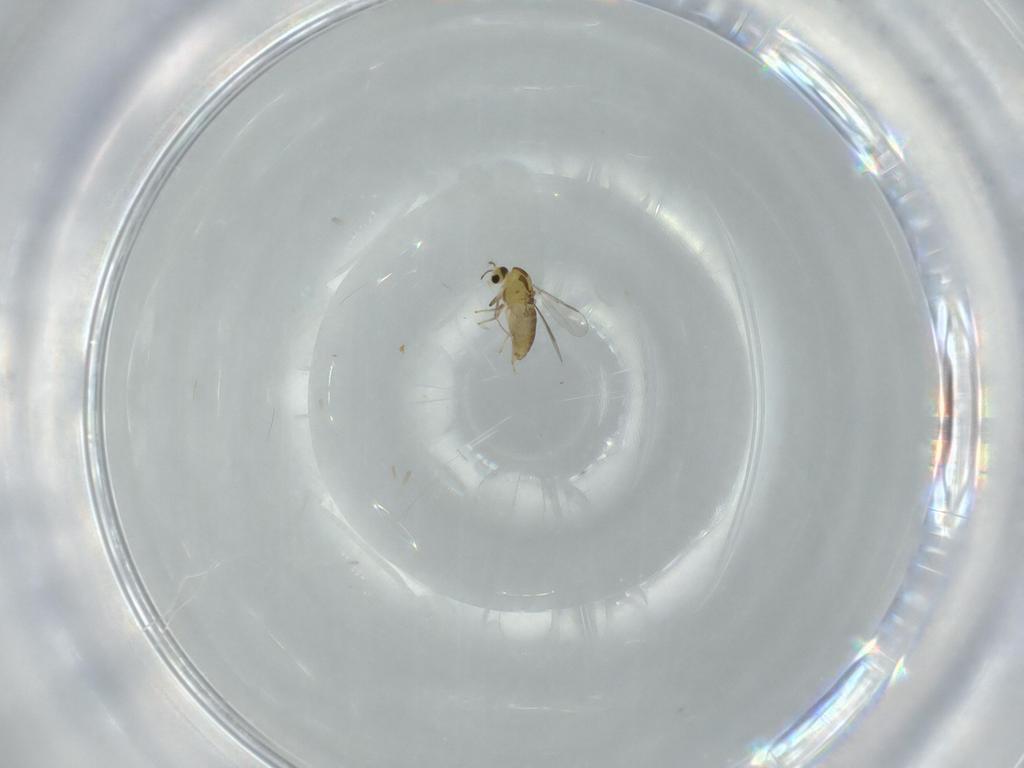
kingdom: Animalia
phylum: Arthropoda
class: Insecta
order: Diptera
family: Chironomidae
